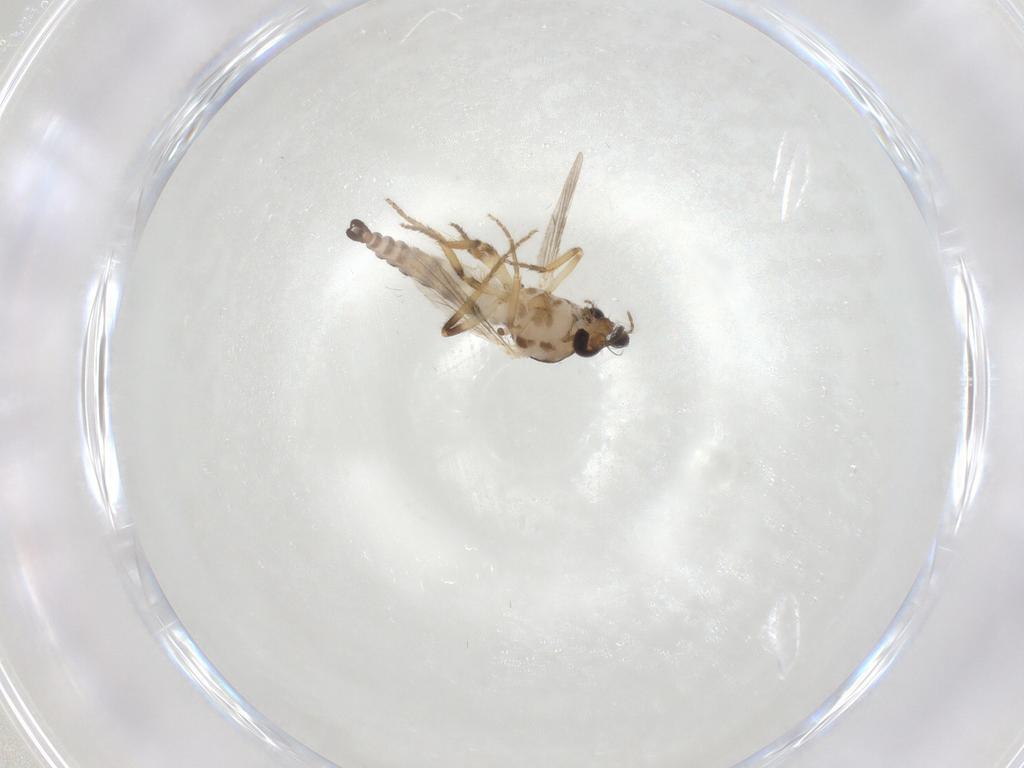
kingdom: Animalia
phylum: Arthropoda
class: Insecta
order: Diptera
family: Ceratopogonidae
